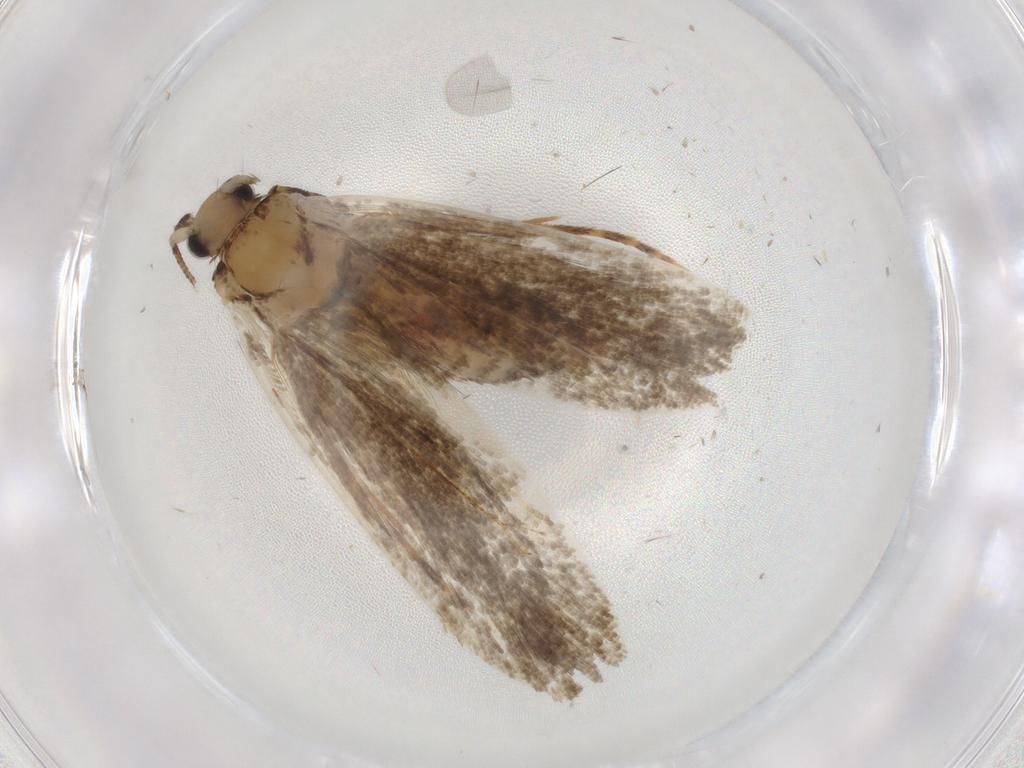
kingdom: Animalia
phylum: Arthropoda
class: Insecta
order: Lepidoptera
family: Tineidae
